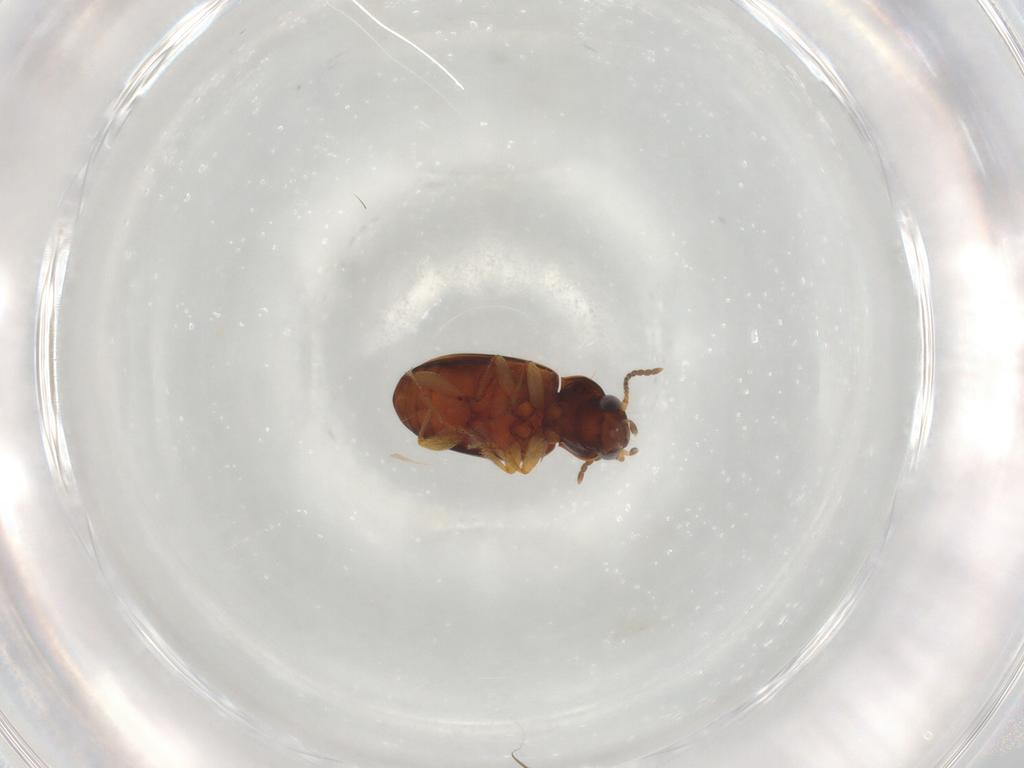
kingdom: Animalia
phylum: Arthropoda
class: Insecta
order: Coleoptera
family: Carabidae
